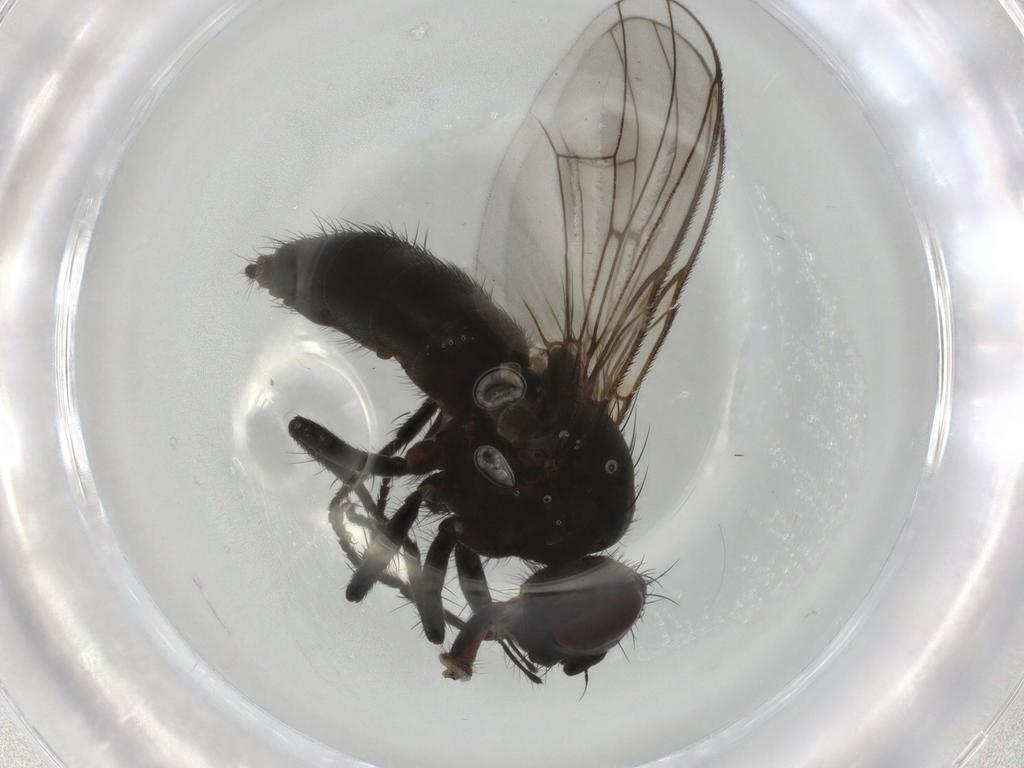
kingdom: Animalia
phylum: Arthropoda
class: Insecta
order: Diptera
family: Muscidae
